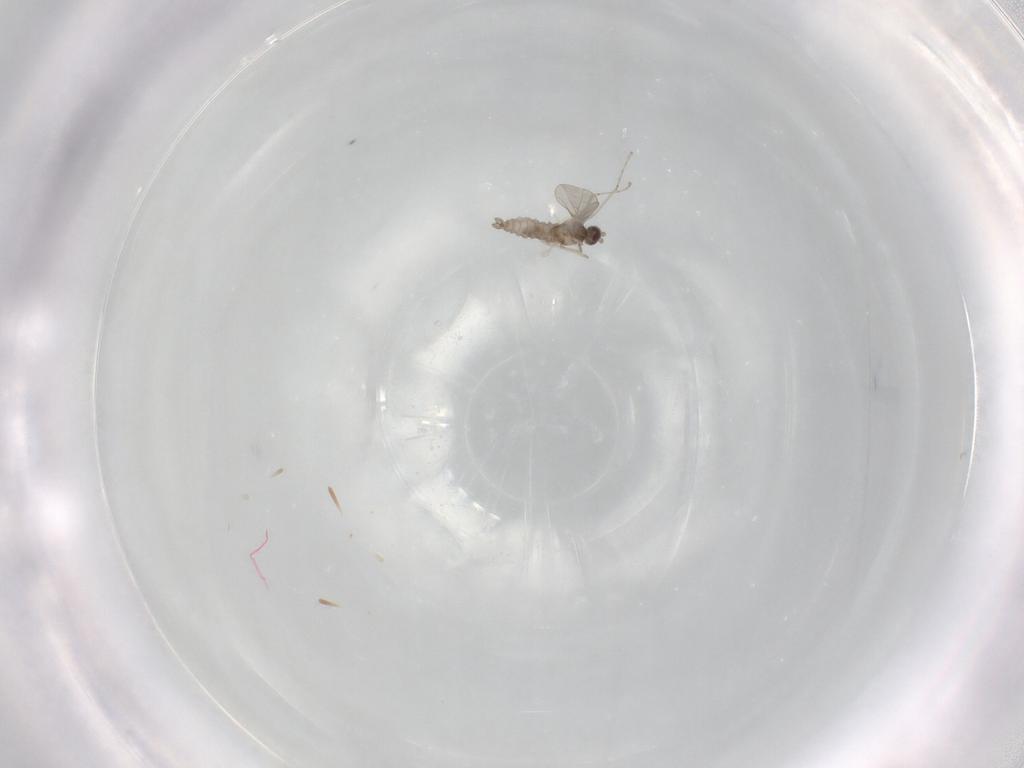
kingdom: Animalia
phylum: Arthropoda
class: Insecta
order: Diptera
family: Cecidomyiidae
